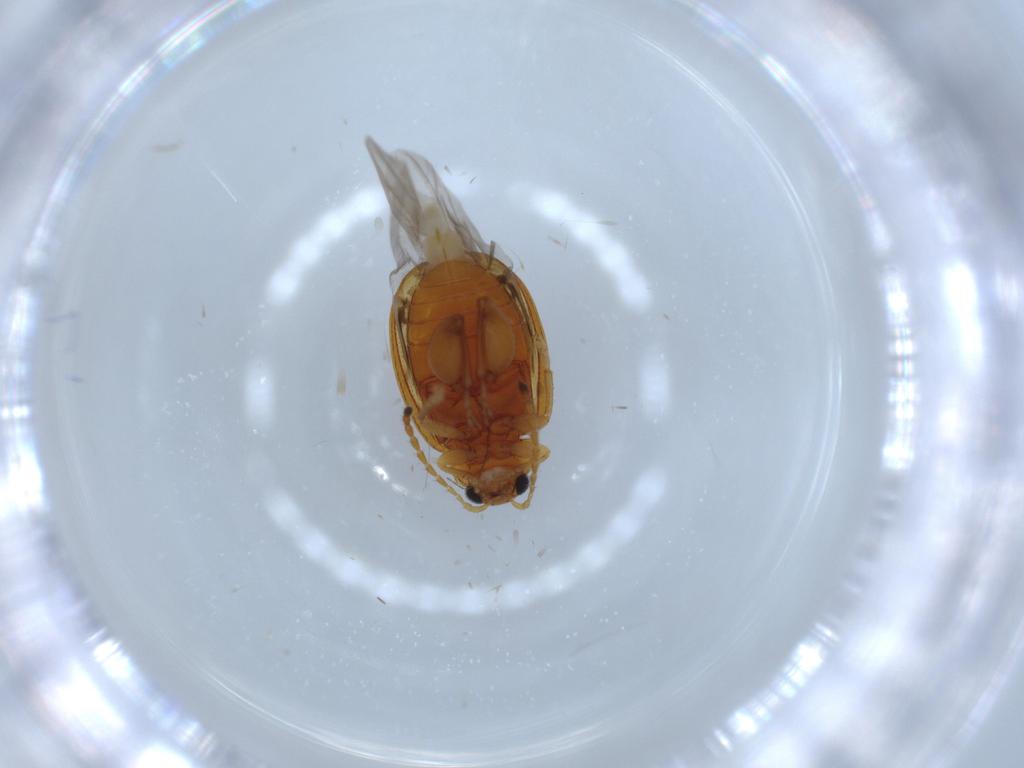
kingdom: Animalia
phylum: Arthropoda
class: Insecta
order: Coleoptera
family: Chrysomelidae
